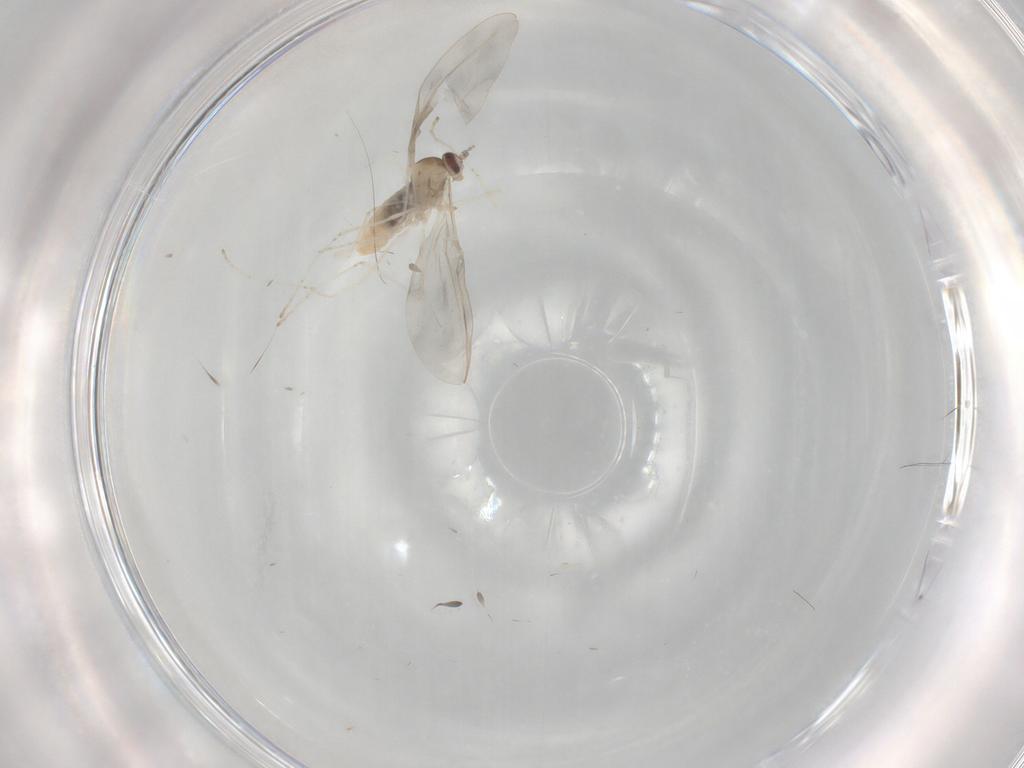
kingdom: Animalia
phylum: Arthropoda
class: Insecta
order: Diptera
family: Cecidomyiidae
